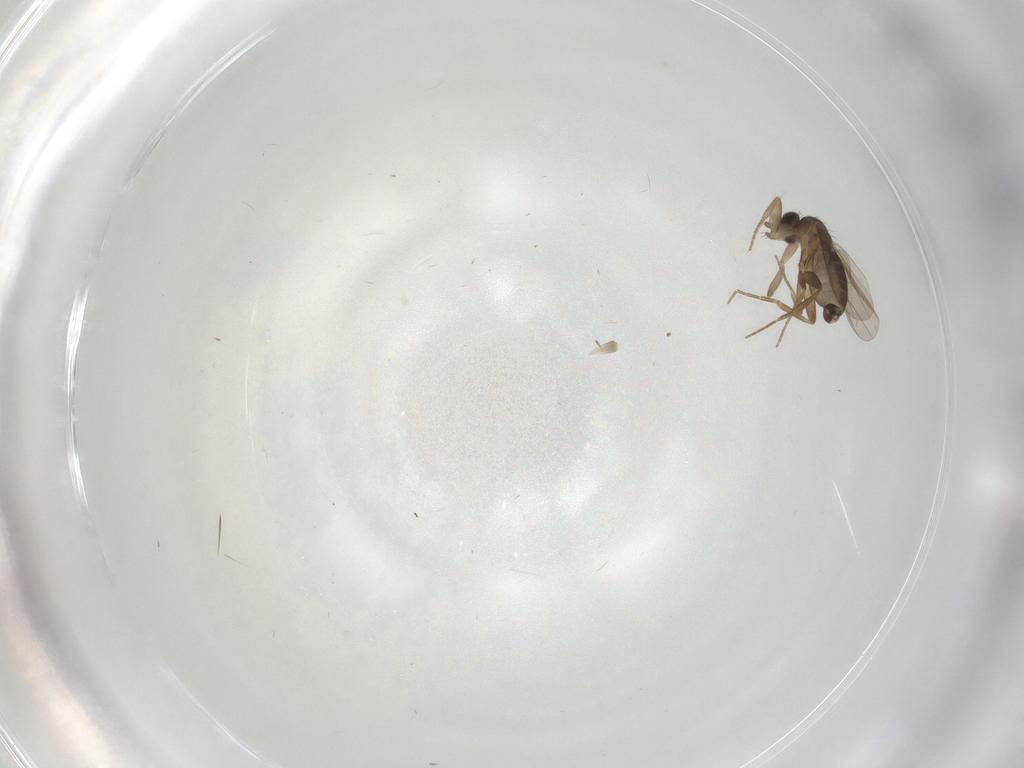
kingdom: Animalia
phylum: Arthropoda
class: Insecta
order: Diptera
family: Phoridae
